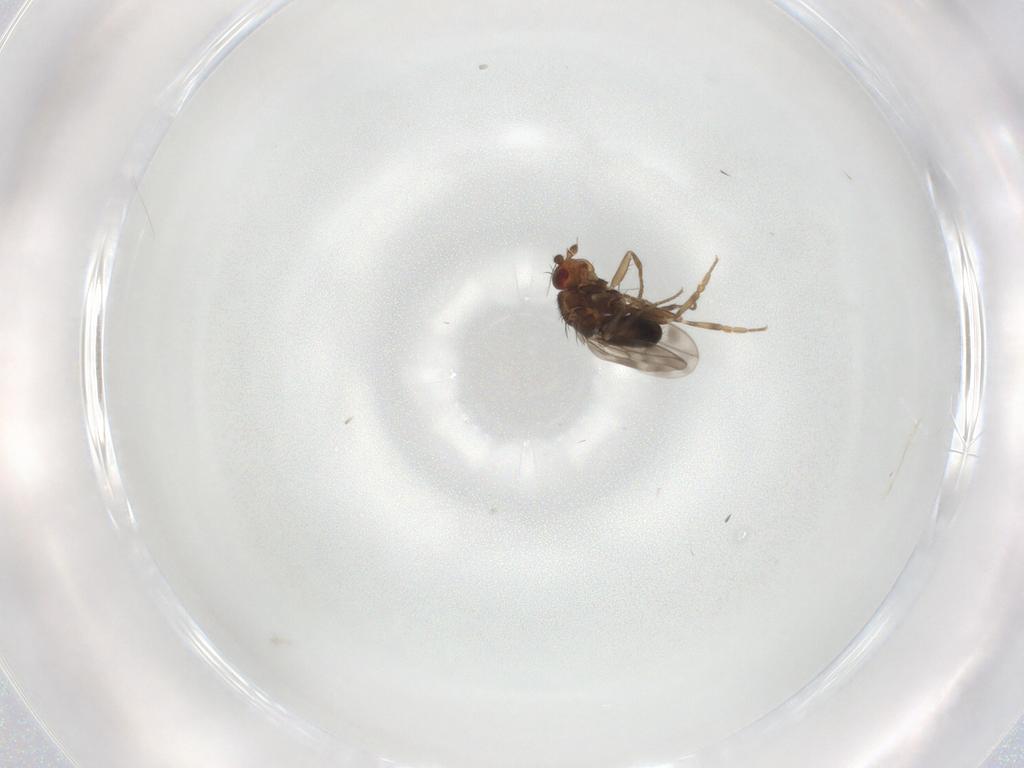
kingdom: Animalia
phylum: Arthropoda
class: Insecta
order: Diptera
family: Sphaeroceridae
